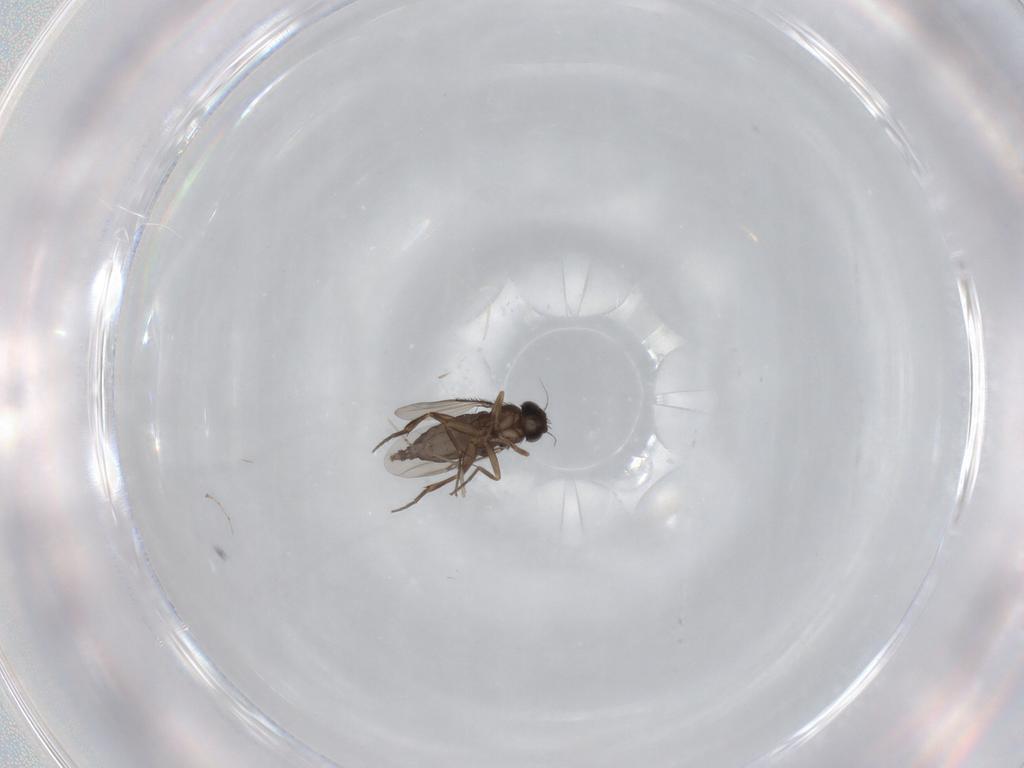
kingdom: Animalia
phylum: Arthropoda
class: Insecta
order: Diptera
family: Phoridae
